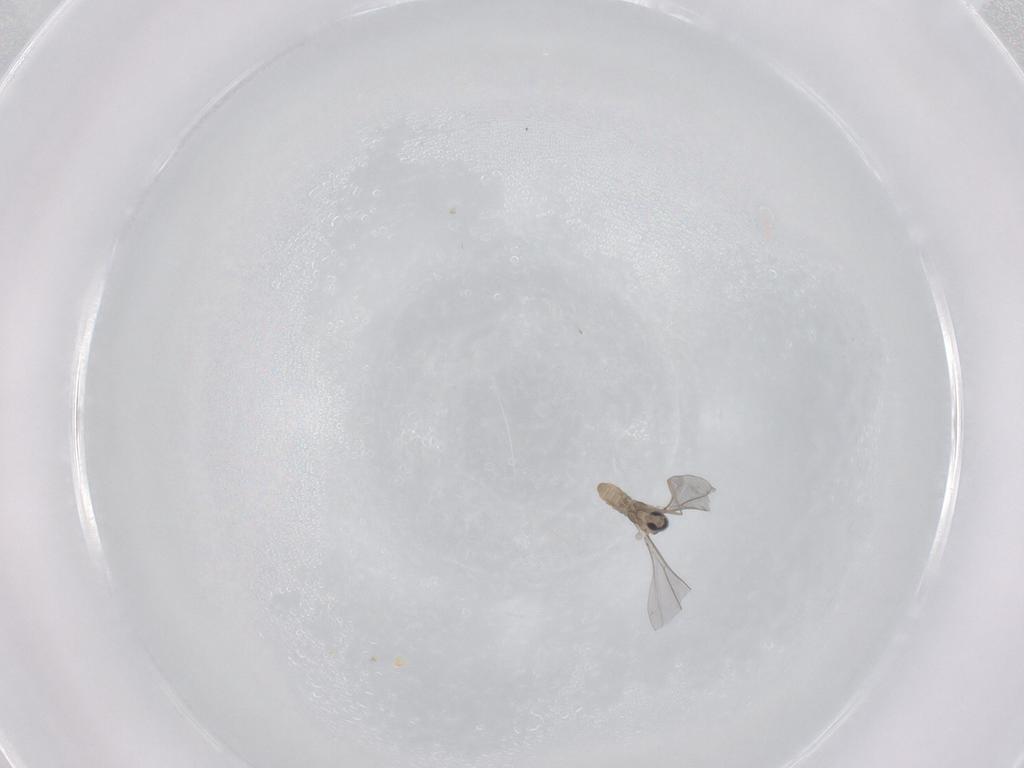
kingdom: Animalia
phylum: Arthropoda
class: Insecta
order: Diptera
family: Cecidomyiidae
